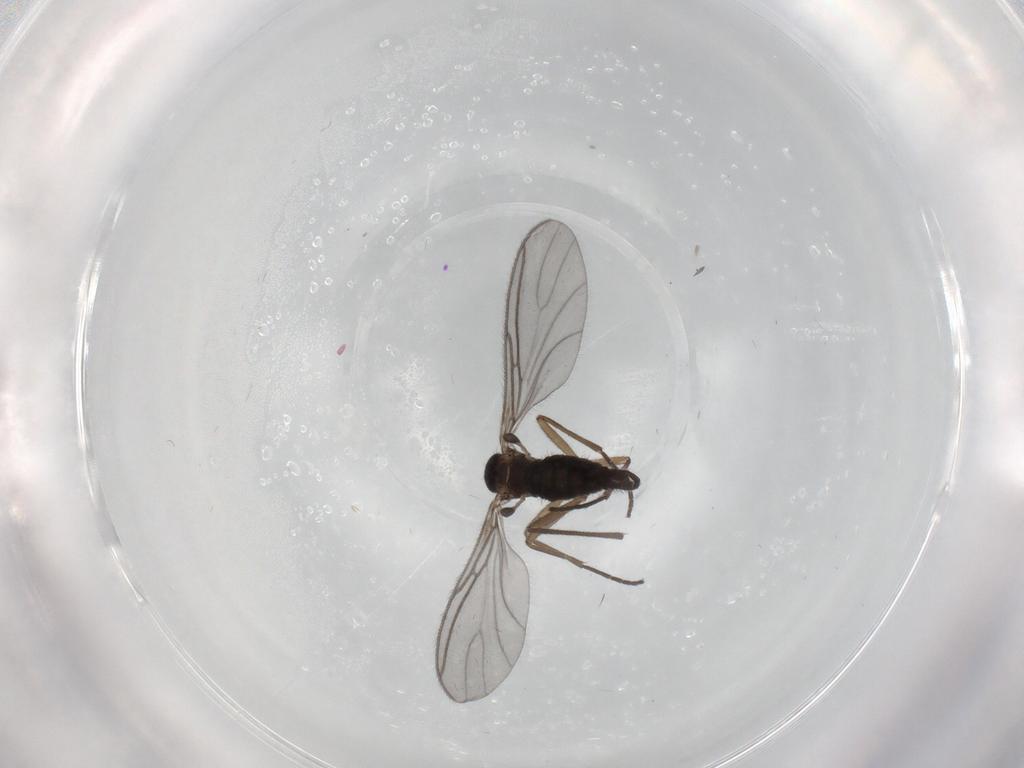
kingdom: Animalia
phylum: Arthropoda
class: Insecta
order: Diptera
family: Sciaridae
